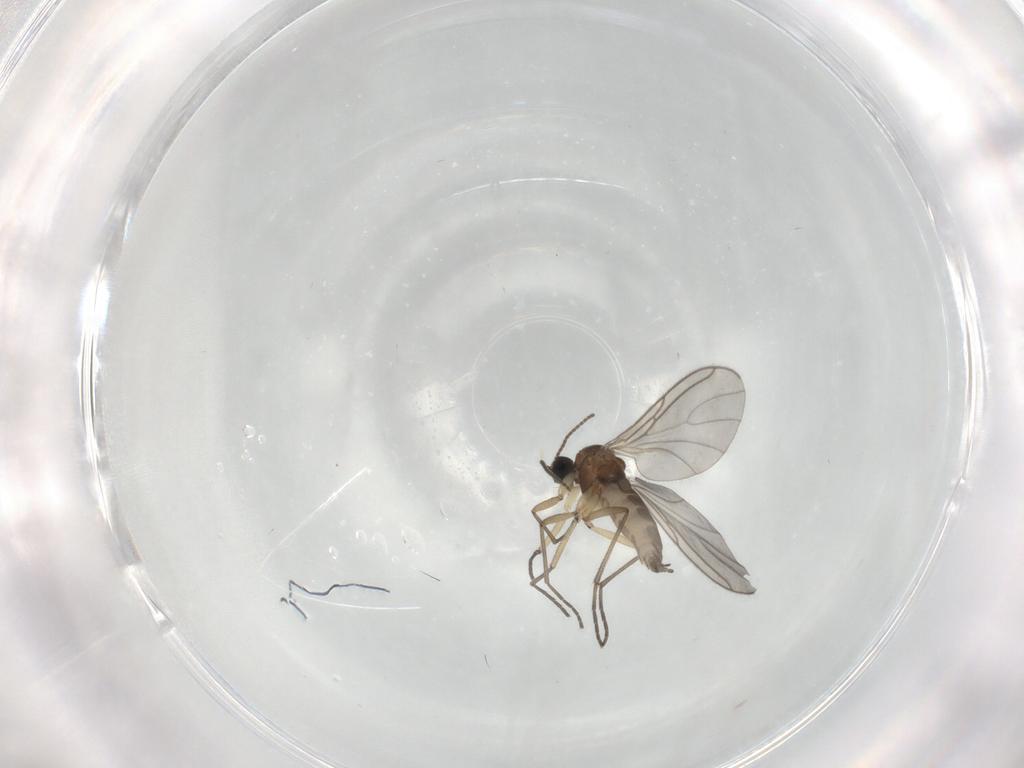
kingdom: Animalia
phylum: Arthropoda
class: Insecta
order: Diptera
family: Sciaridae
